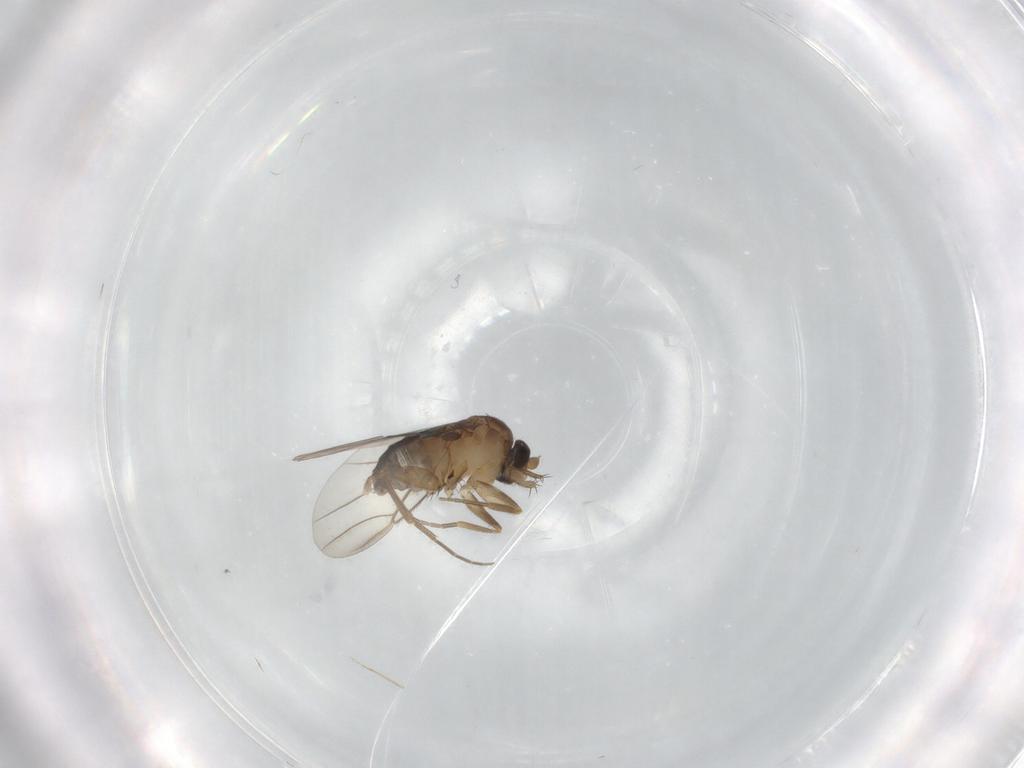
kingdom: Animalia
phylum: Arthropoda
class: Insecta
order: Diptera
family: Phoridae
